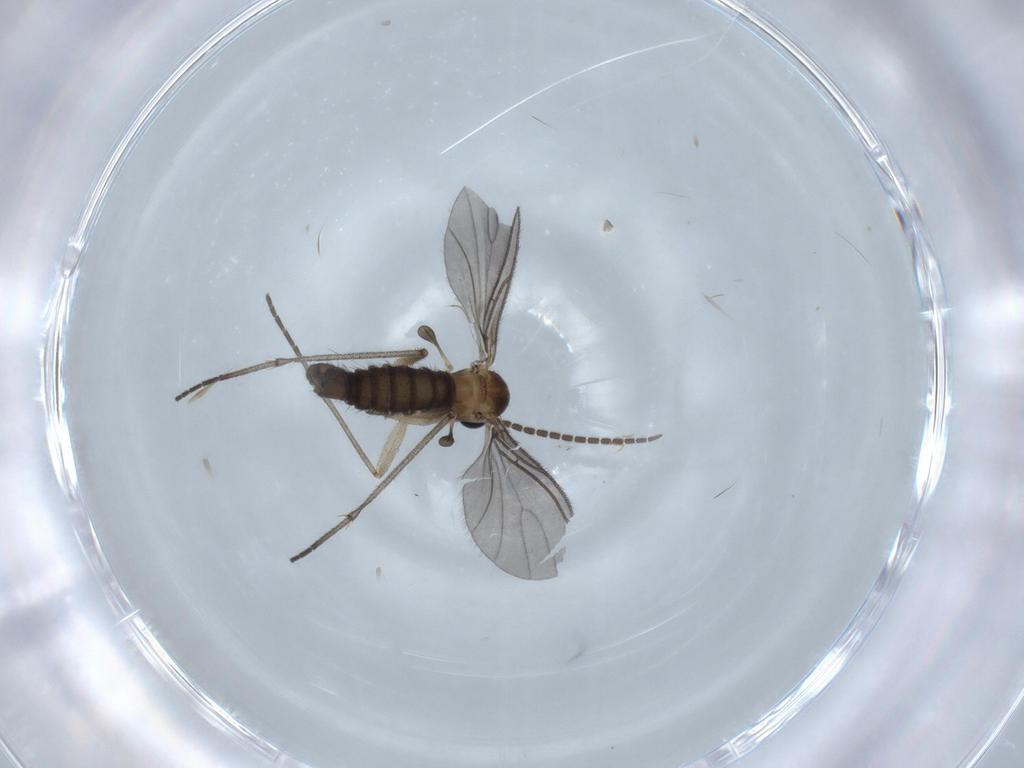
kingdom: Animalia
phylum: Arthropoda
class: Insecta
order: Diptera
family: Sciaridae
